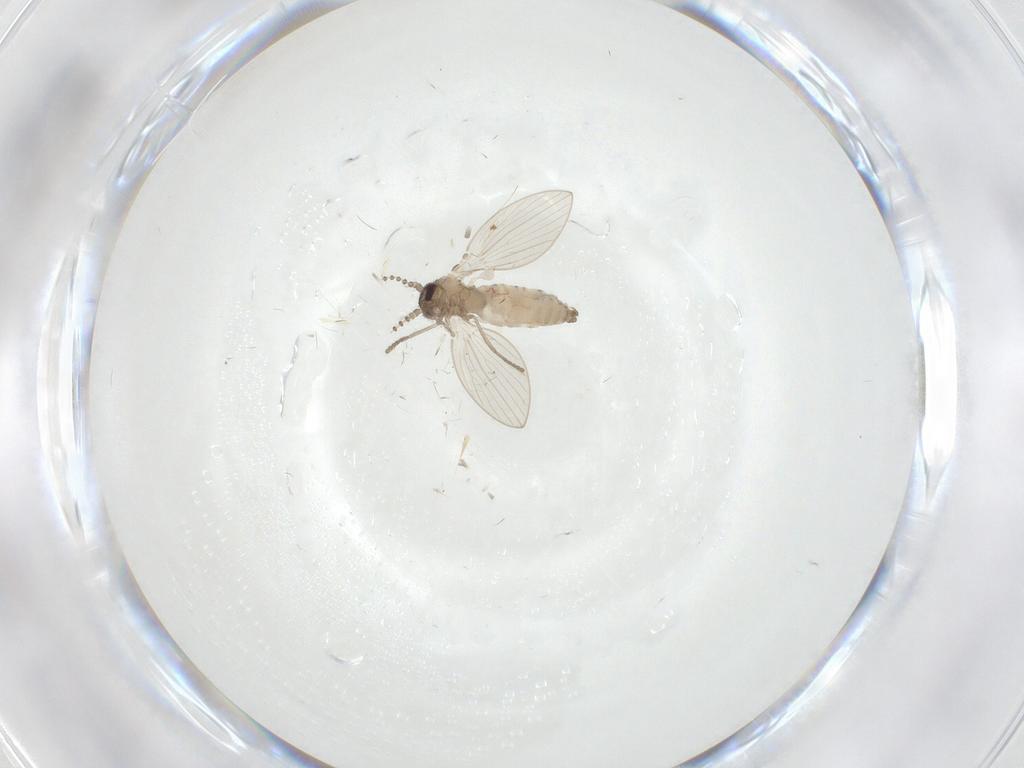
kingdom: Animalia
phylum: Arthropoda
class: Insecta
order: Diptera
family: Psychodidae
